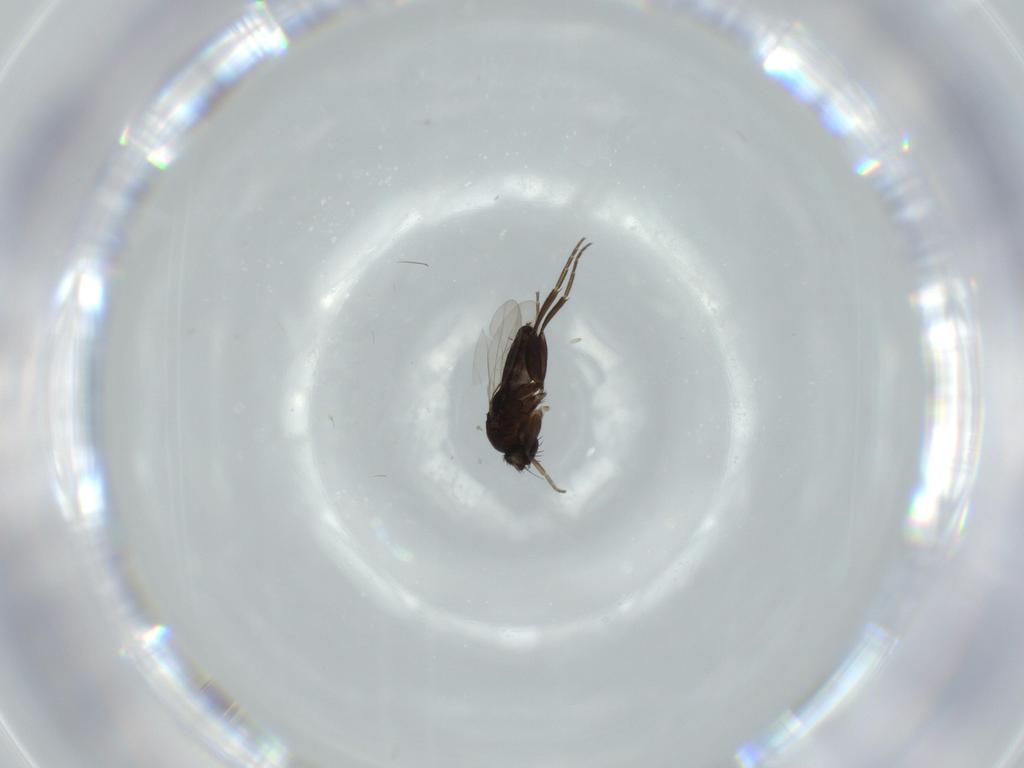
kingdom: Animalia
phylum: Arthropoda
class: Insecta
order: Diptera
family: Phoridae
